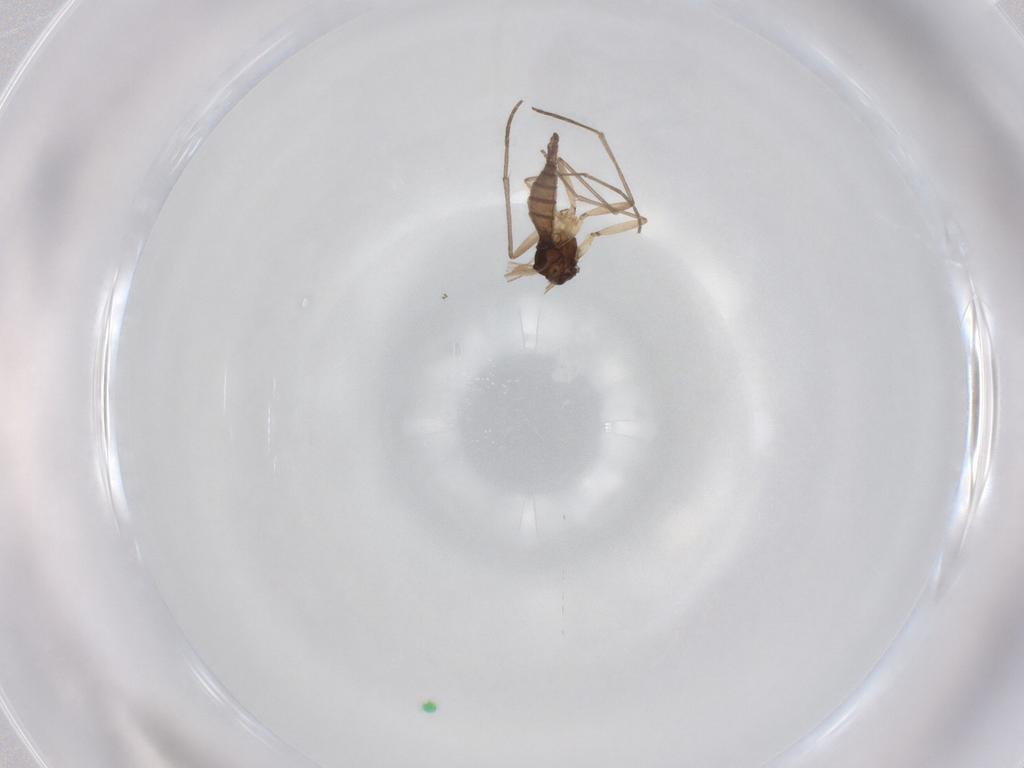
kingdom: Animalia
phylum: Arthropoda
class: Insecta
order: Diptera
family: Sciaridae
